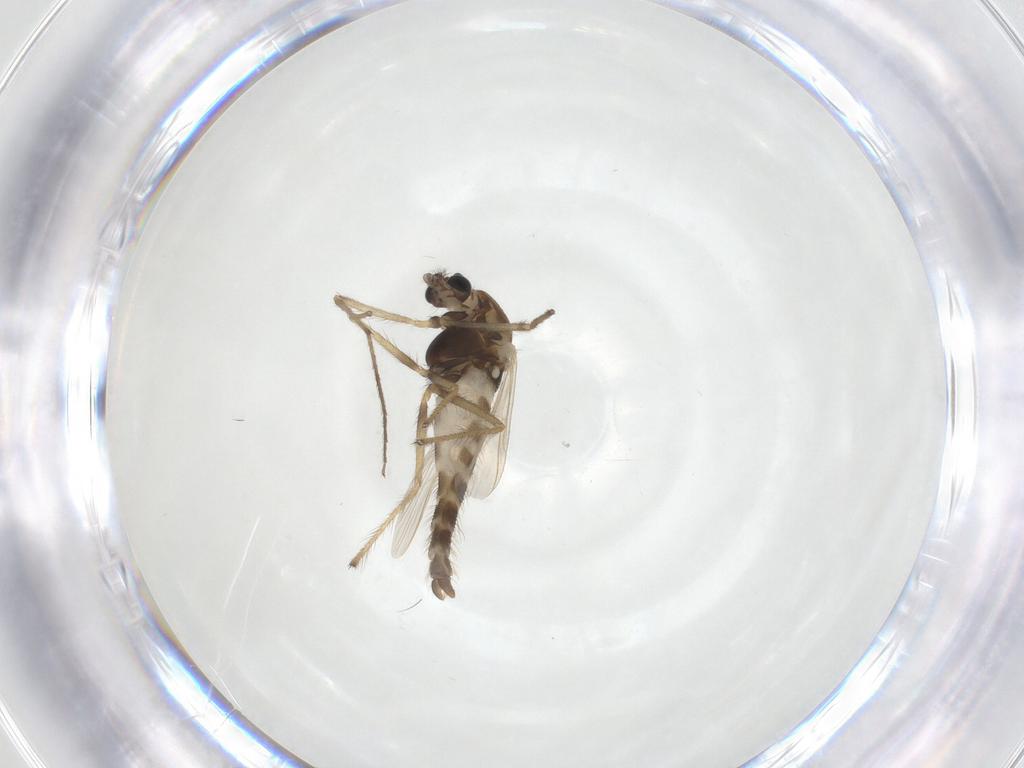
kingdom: Animalia
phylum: Arthropoda
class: Insecta
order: Diptera
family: Chironomidae
